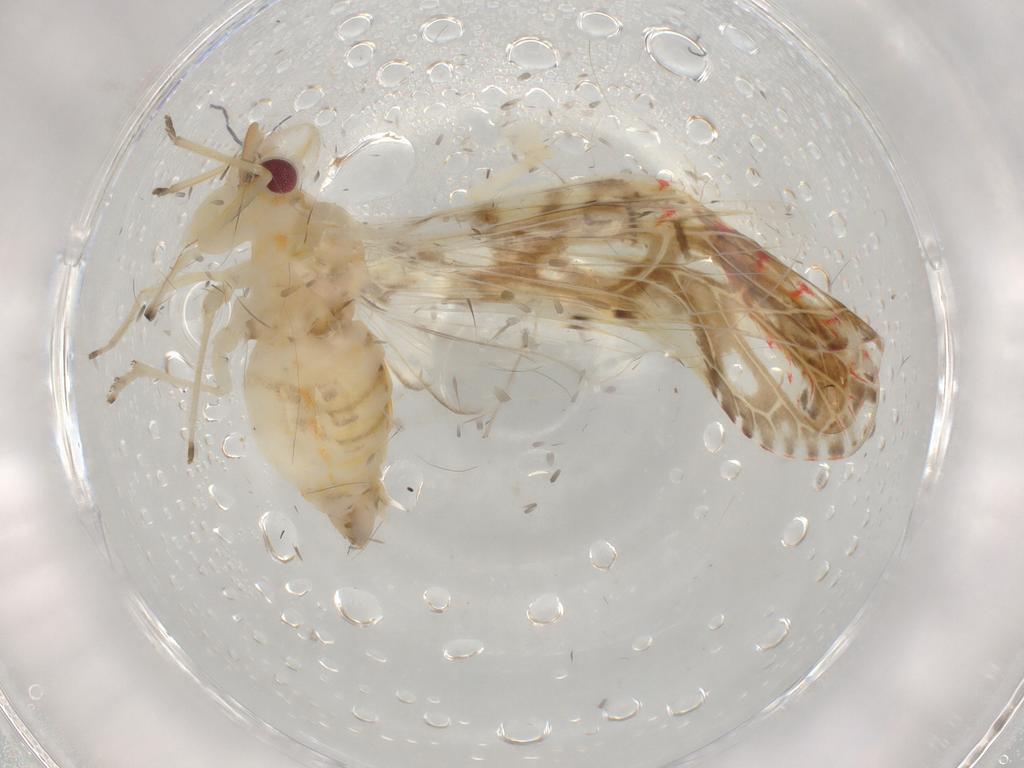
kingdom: Animalia
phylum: Arthropoda
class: Insecta
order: Hemiptera
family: Derbidae
